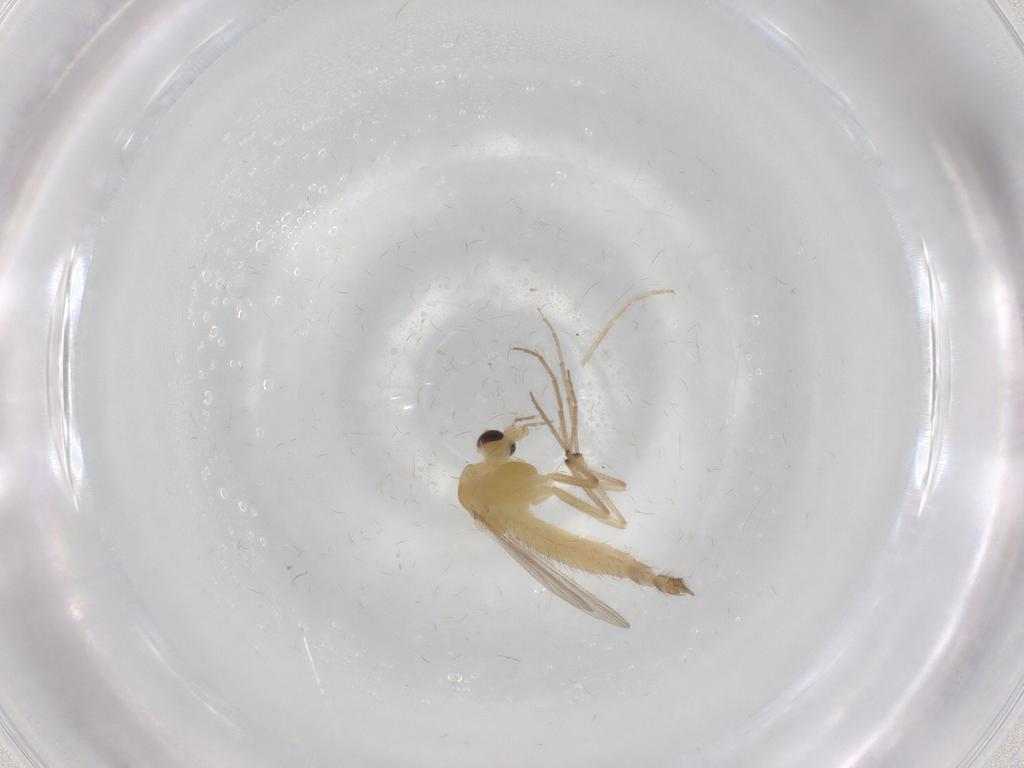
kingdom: Animalia
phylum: Arthropoda
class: Insecta
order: Diptera
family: Chironomidae
